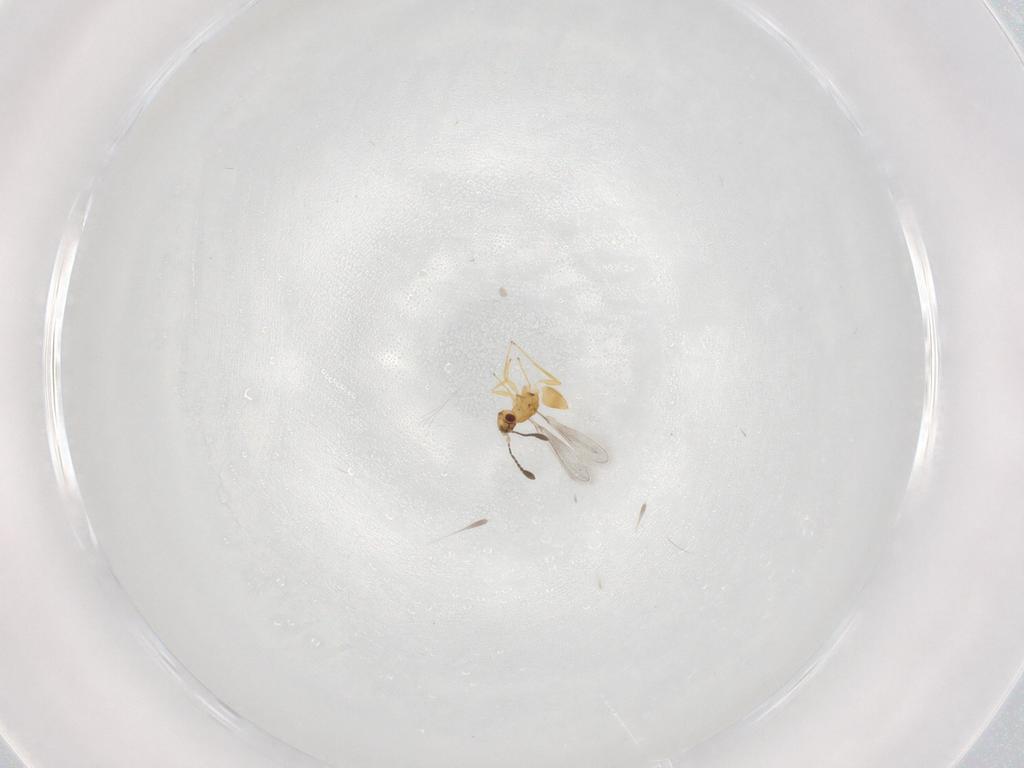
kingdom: Animalia
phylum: Arthropoda
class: Insecta
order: Hymenoptera
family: Mymaridae
